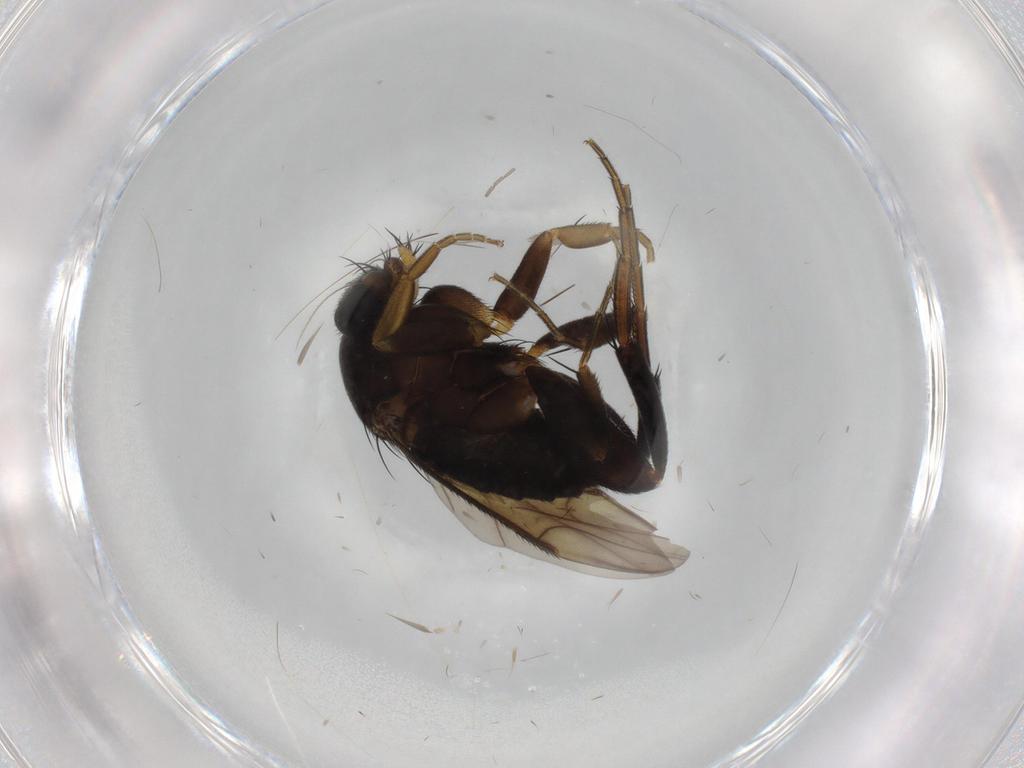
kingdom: Animalia
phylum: Arthropoda
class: Insecta
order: Diptera
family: Phoridae
